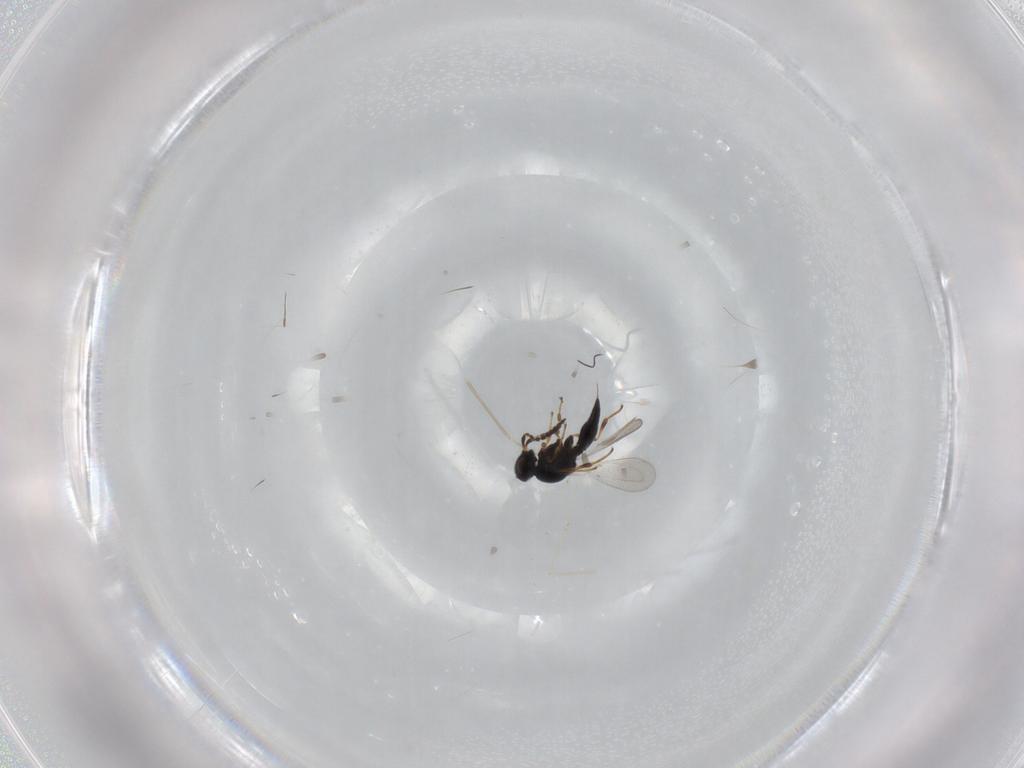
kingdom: Animalia
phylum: Arthropoda
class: Insecta
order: Hymenoptera
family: Platygastridae
